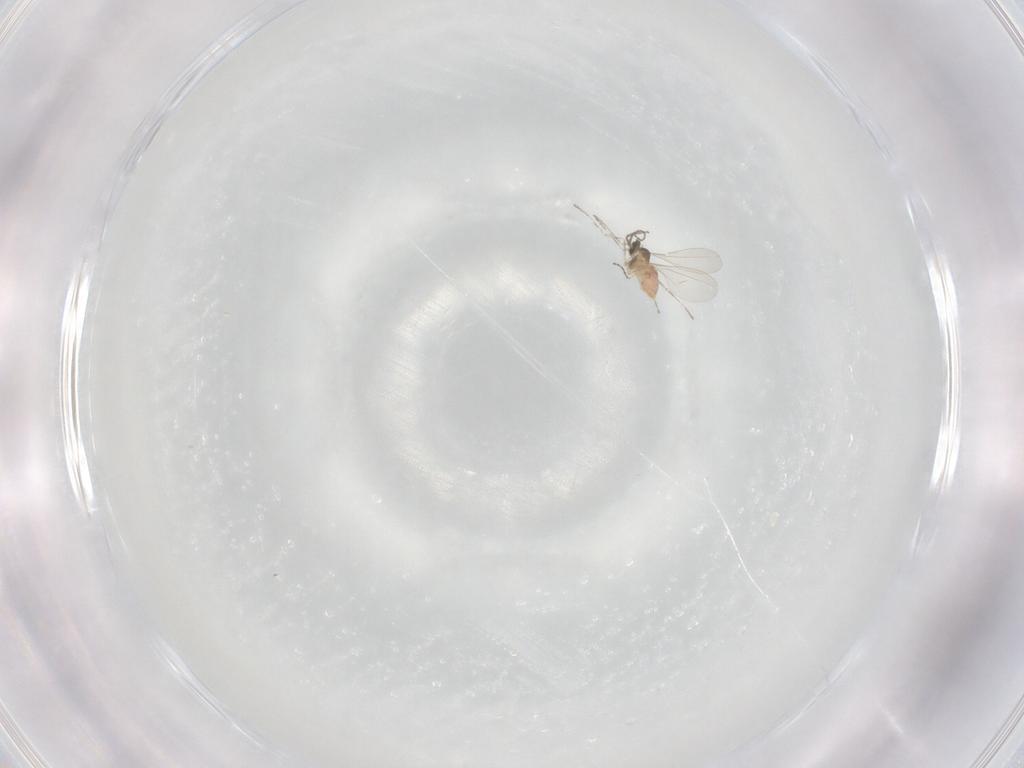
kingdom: Animalia
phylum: Arthropoda
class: Insecta
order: Diptera
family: Cecidomyiidae
